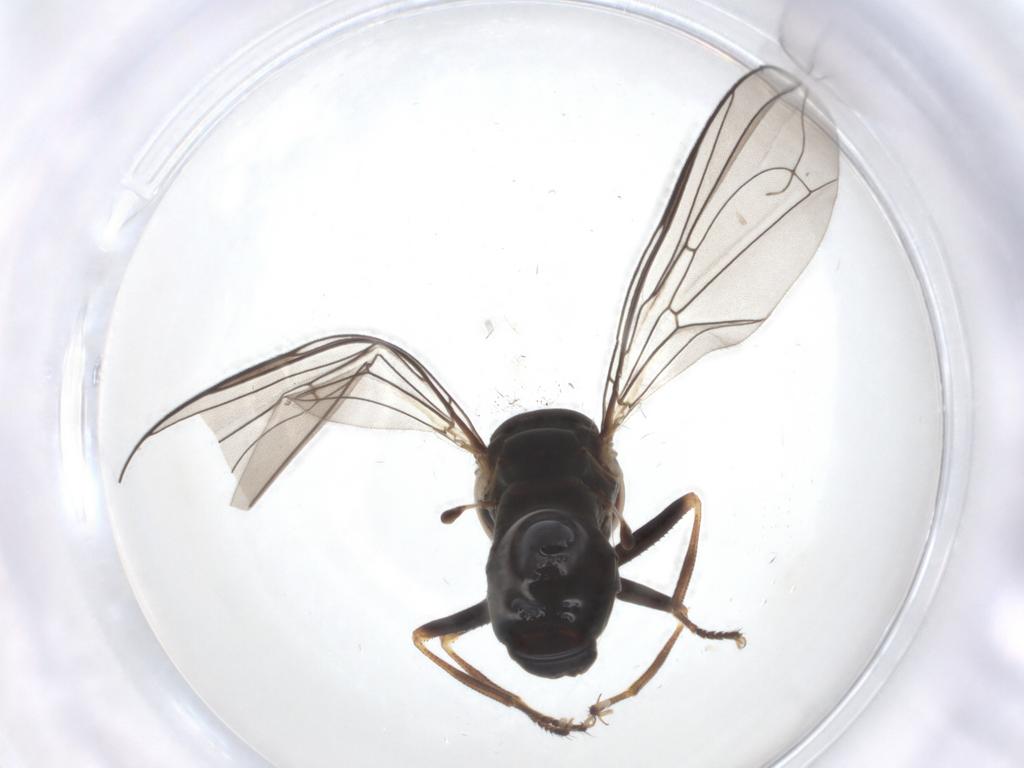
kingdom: Animalia
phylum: Arthropoda
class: Insecta
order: Diptera
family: Pipunculidae
